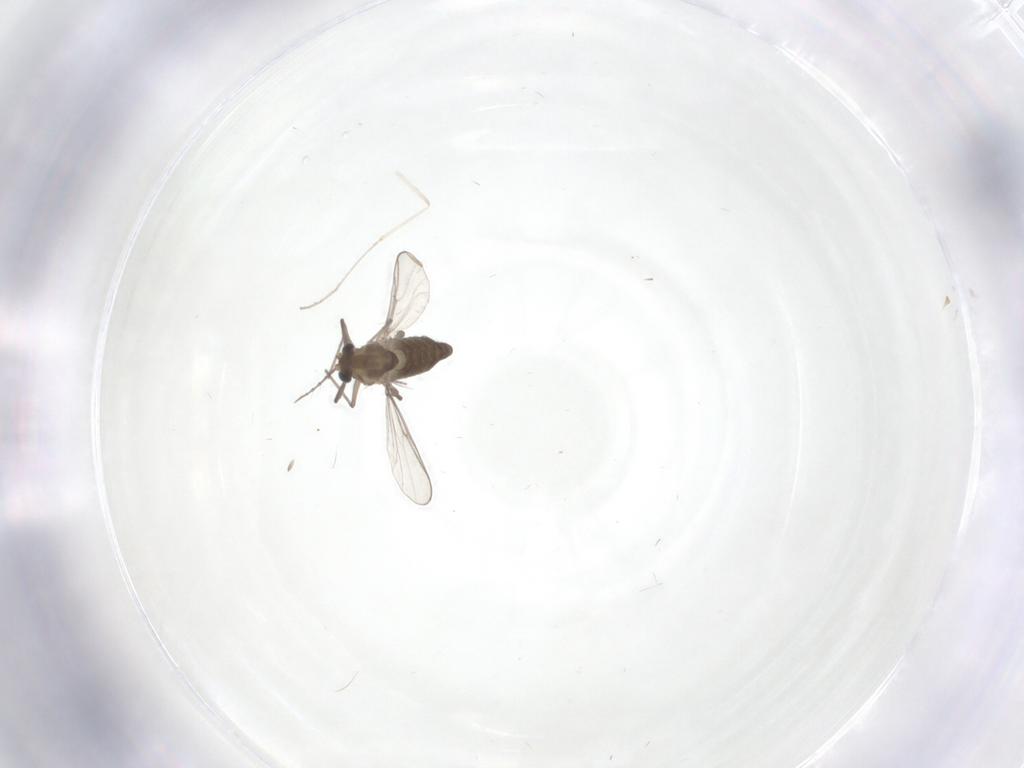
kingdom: Animalia
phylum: Arthropoda
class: Insecta
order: Diptera
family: Chironomidae
